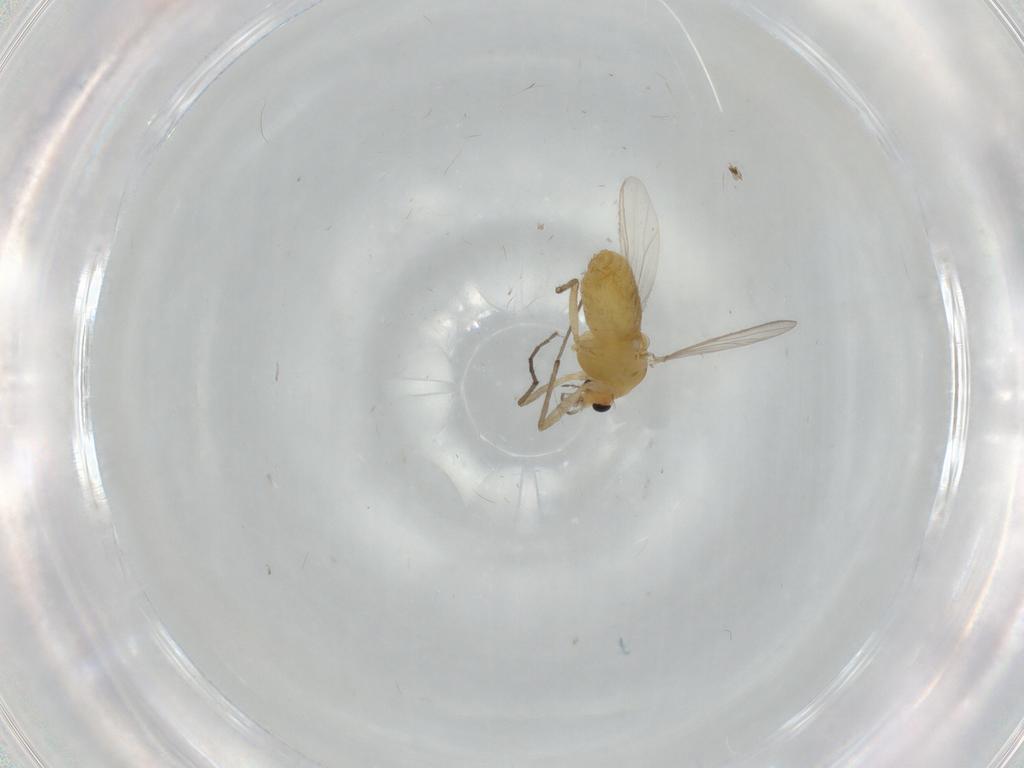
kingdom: Animalia
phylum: Arthropoda
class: Insecta
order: Diptera
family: Chironomidae
